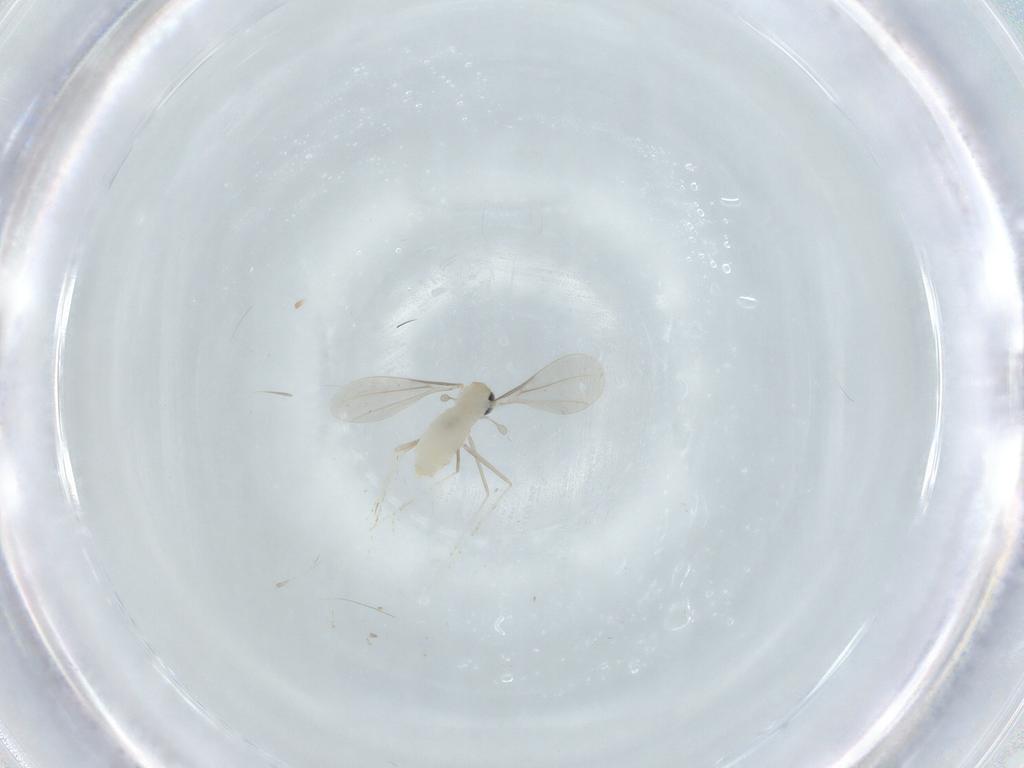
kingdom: Animalia
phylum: Arthropoda
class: Insecta
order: Diptera
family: Cecidomyiidae
